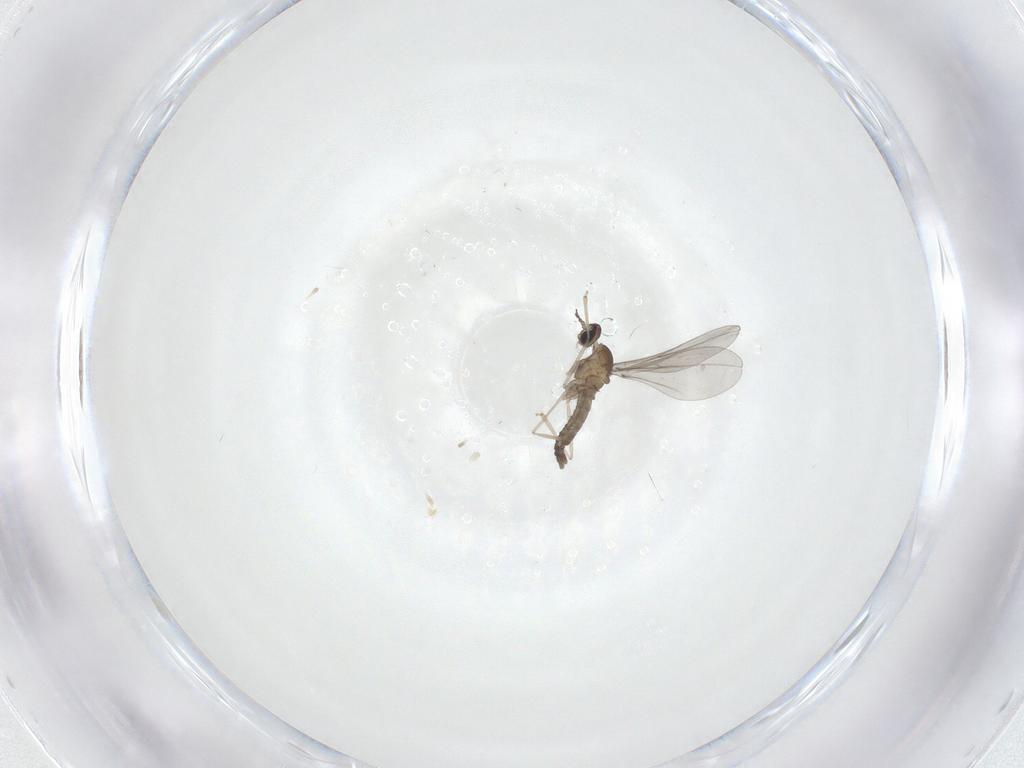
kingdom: Animalia
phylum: Arthropoda
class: Insecta
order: Diptera
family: Cecidomyiidae
